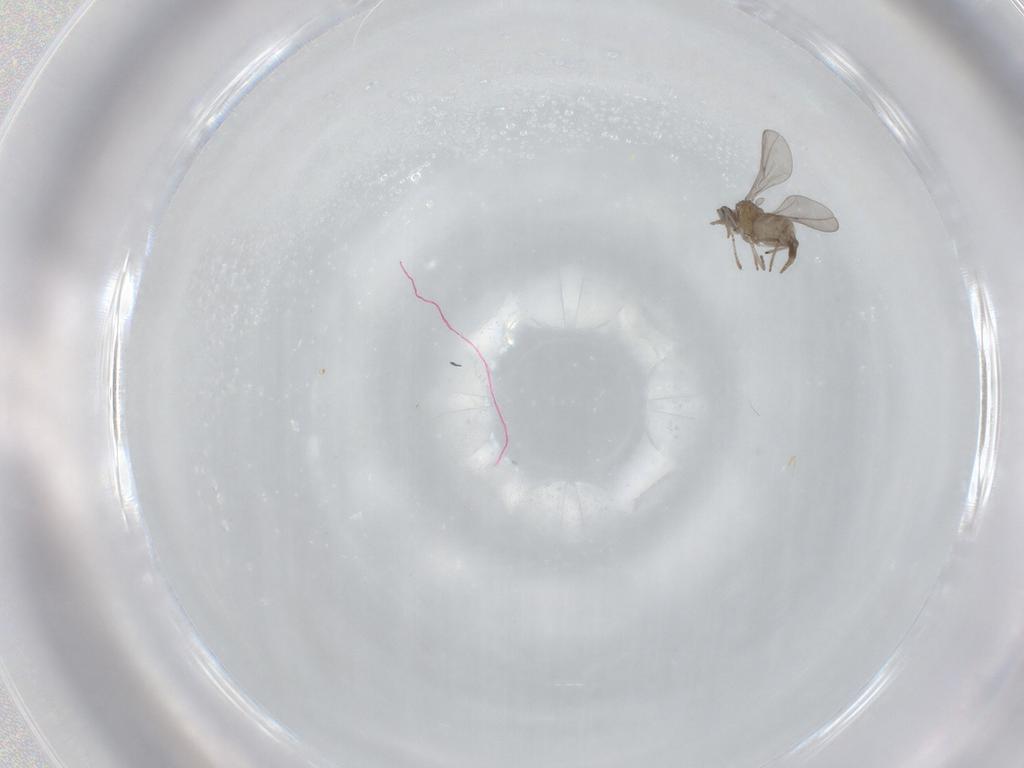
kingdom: Animalia
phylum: Arthropoda
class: Insecta
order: Diptera
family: Cecidomyiidae
